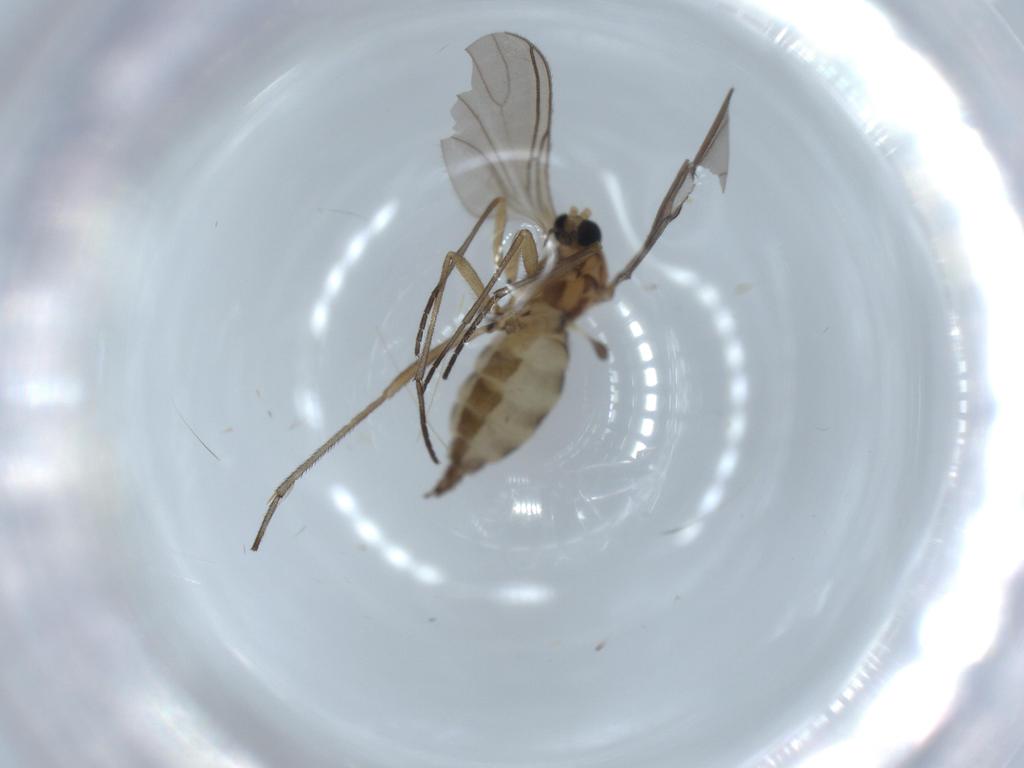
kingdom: Animalia
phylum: Arthropoda
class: Insecta
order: Diptera
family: Sciaridae
